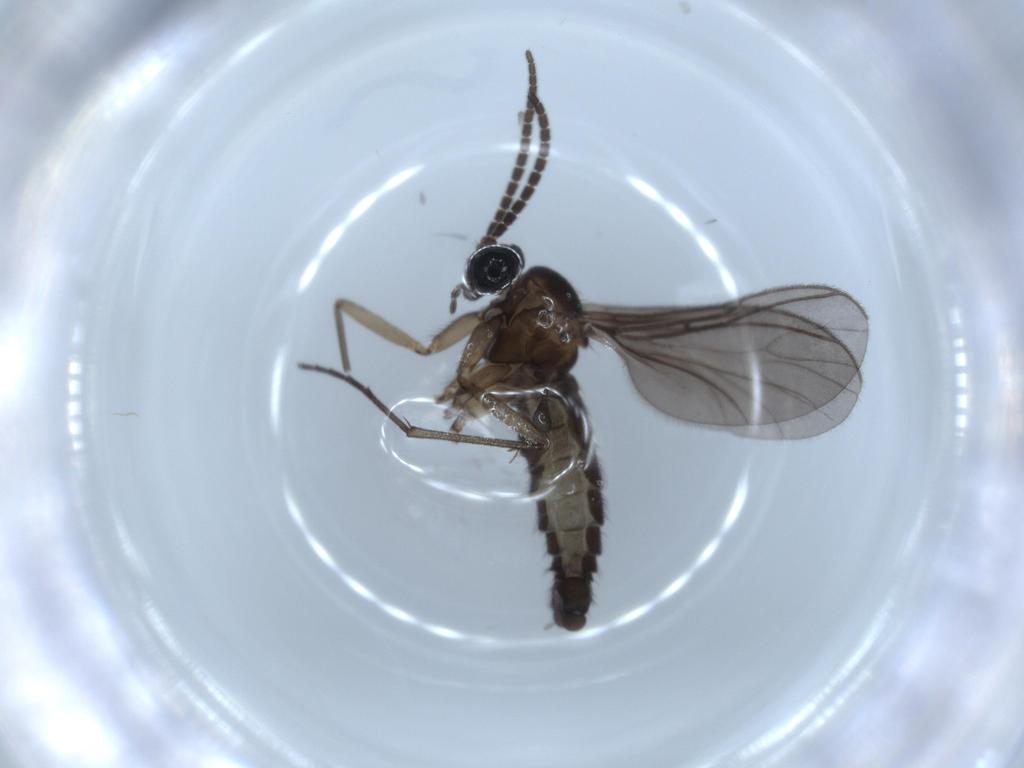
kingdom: Animalia
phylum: Arthropoda
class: Insecta
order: Diptera
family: Sciaridae
